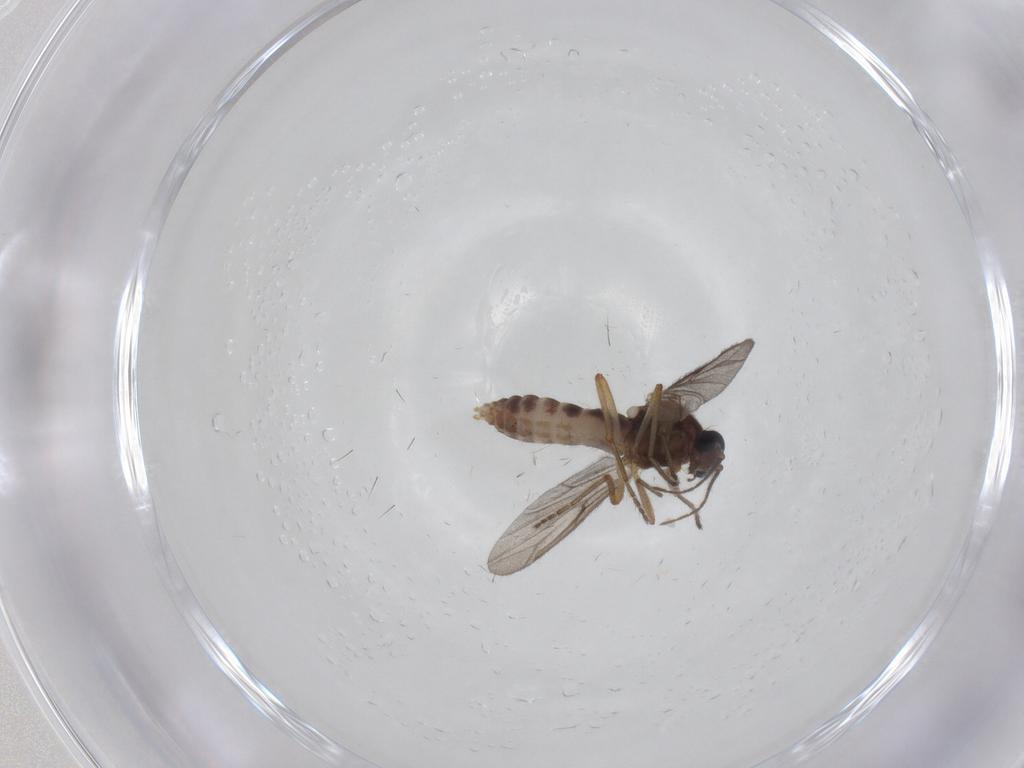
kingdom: Animalia
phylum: Arthropoda
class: Insecta
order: Diptera
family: Ceratopogonidae
